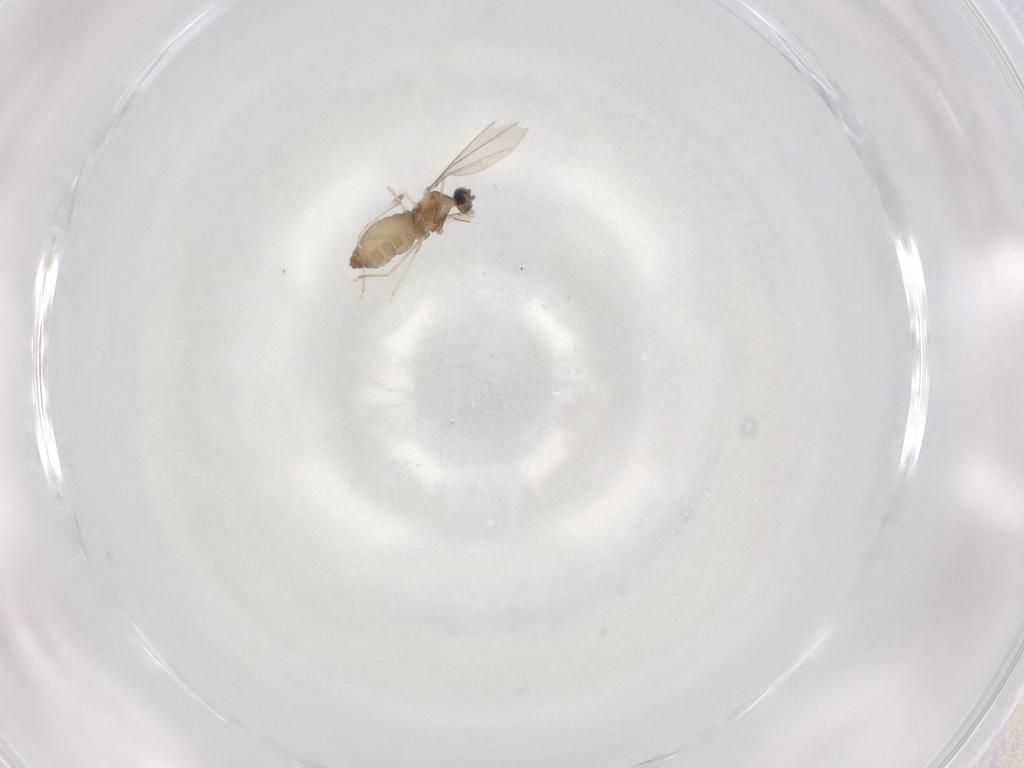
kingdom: Animalia
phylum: Arthropoda
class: Insecta
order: Diptera
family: Cecidomyiidae
